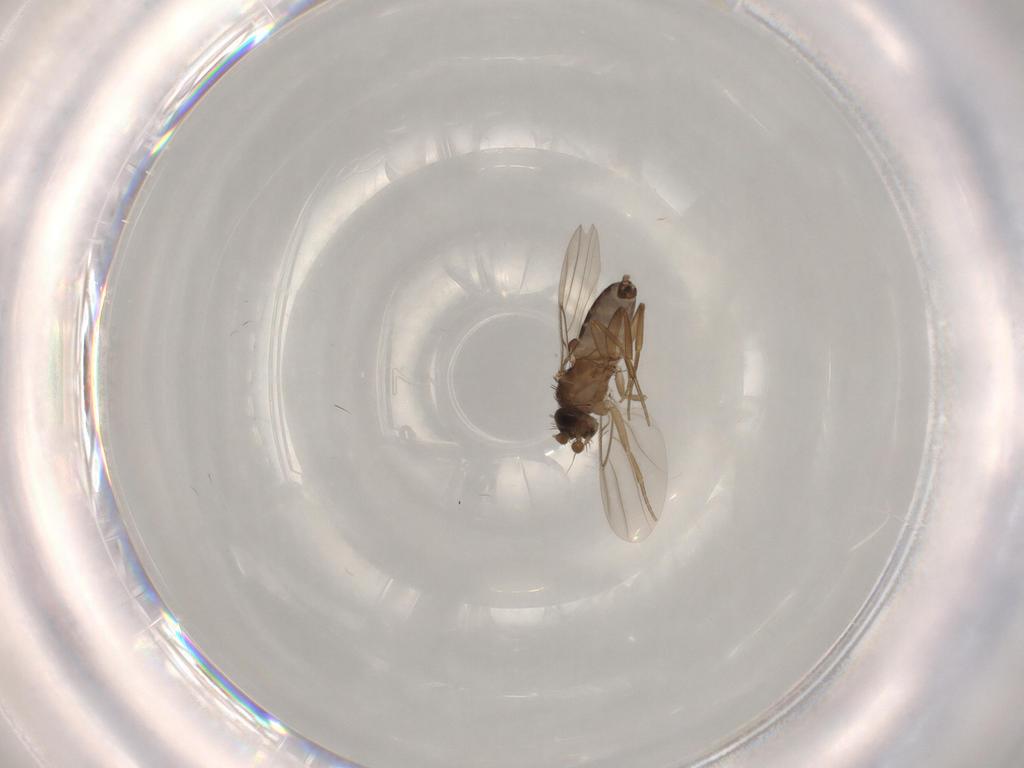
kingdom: Animalia
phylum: Arthropoda
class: Insecta
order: Diptera
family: Phoridae
